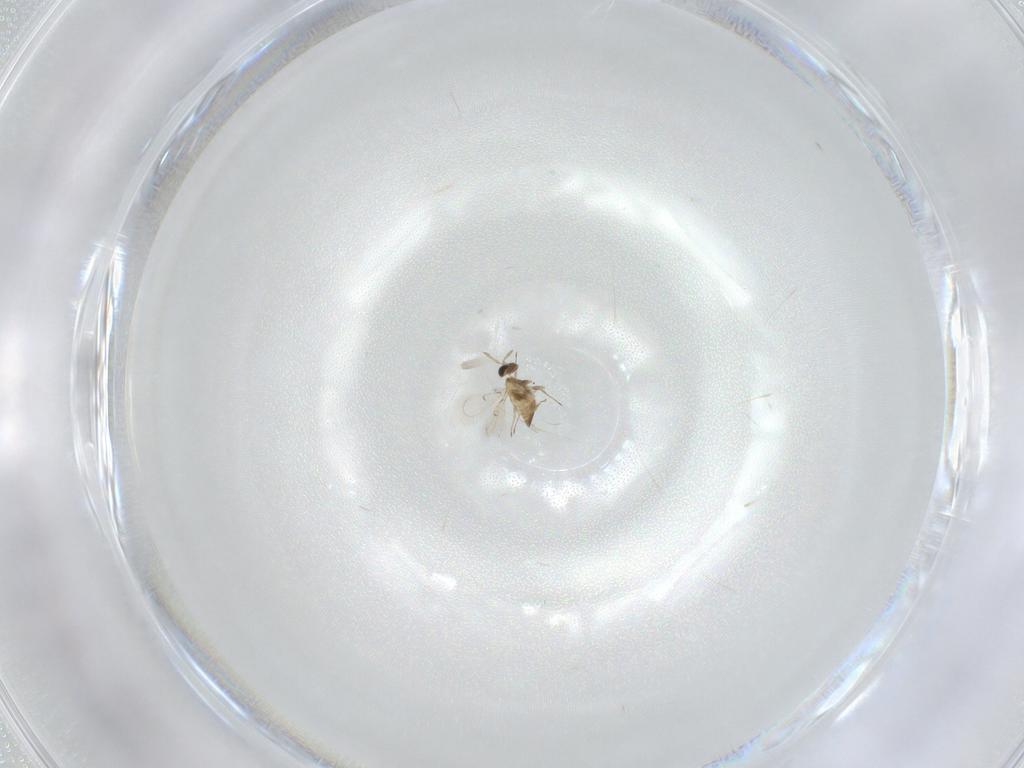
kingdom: Animalia
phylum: Arthropoda
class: Insecta
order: Hymenoptera
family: Trichogrammatidae
